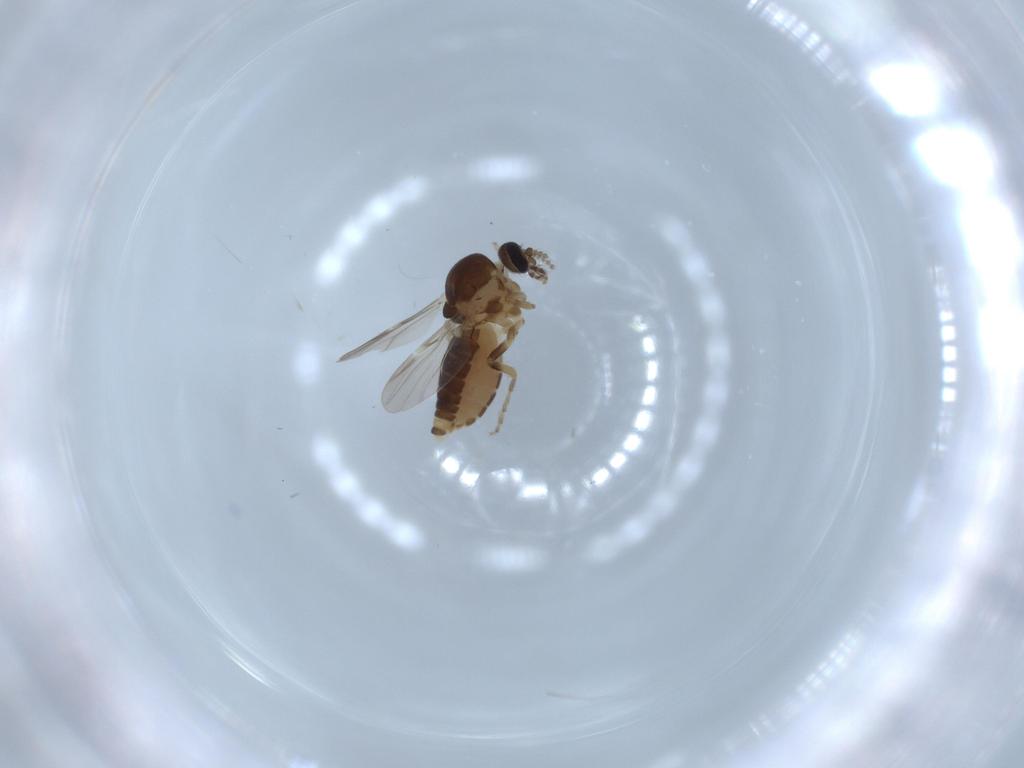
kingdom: Animalia
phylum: Arthropoda
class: Insecta
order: Diptera
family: Ceratopogonidae
